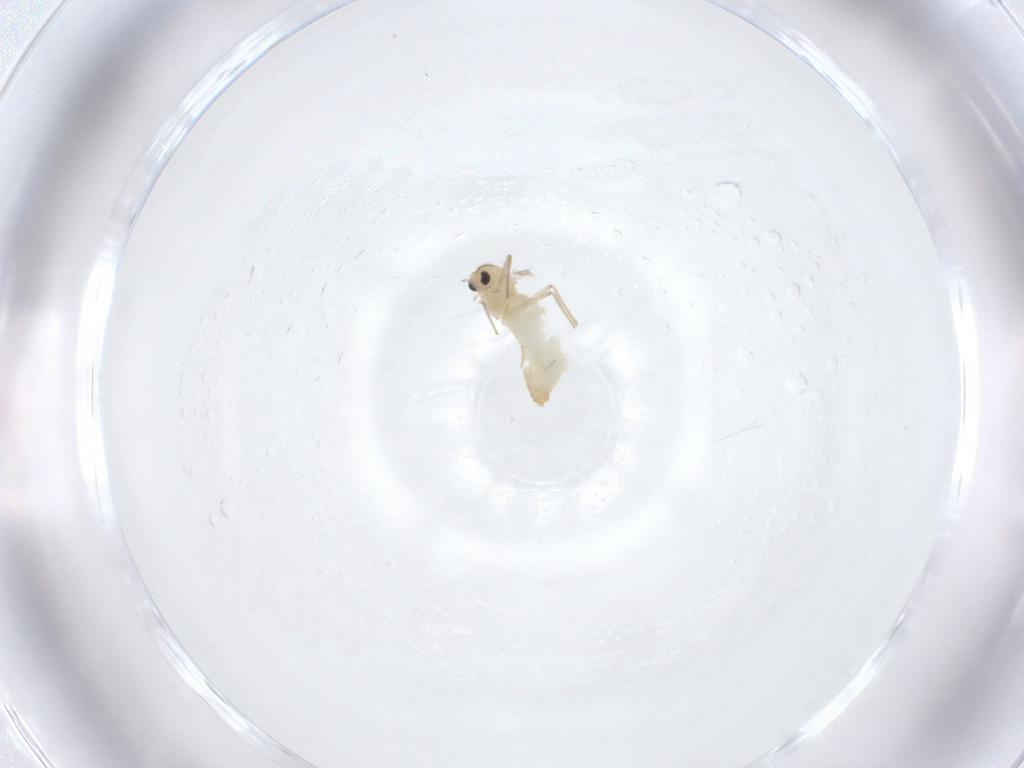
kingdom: Animalia
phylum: Arthropoda
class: Insecta
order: Diptera
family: Chironomidae
